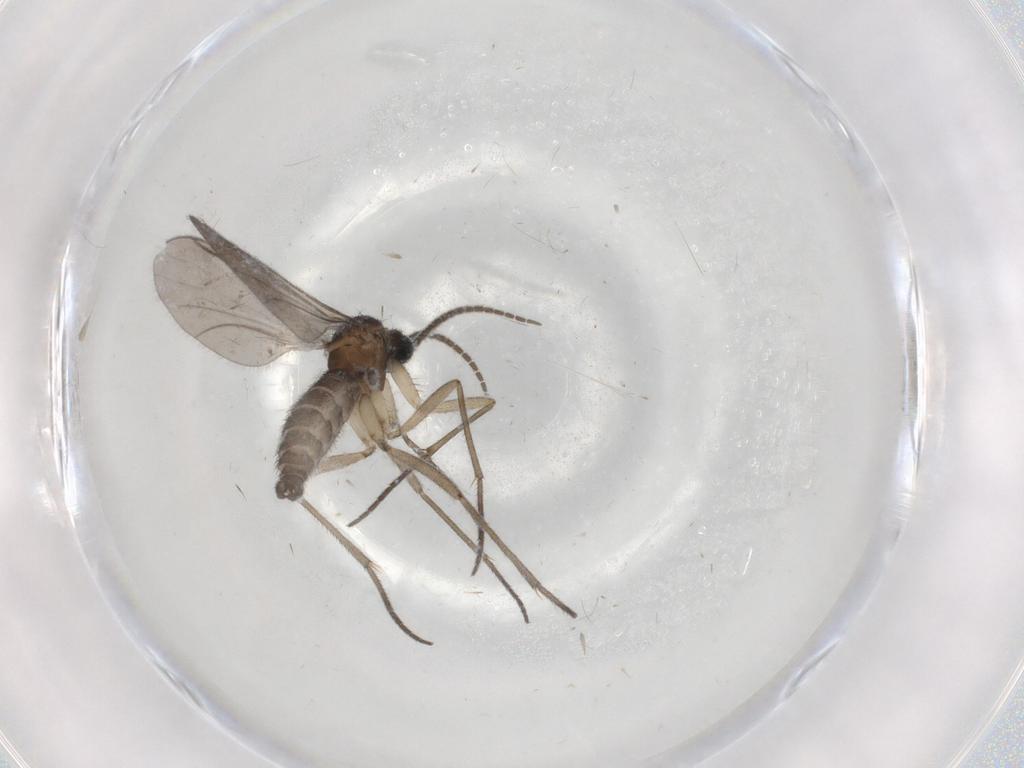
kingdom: Animalia
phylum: Arthropoda
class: Insecta
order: Diptera
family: Sciaridae
